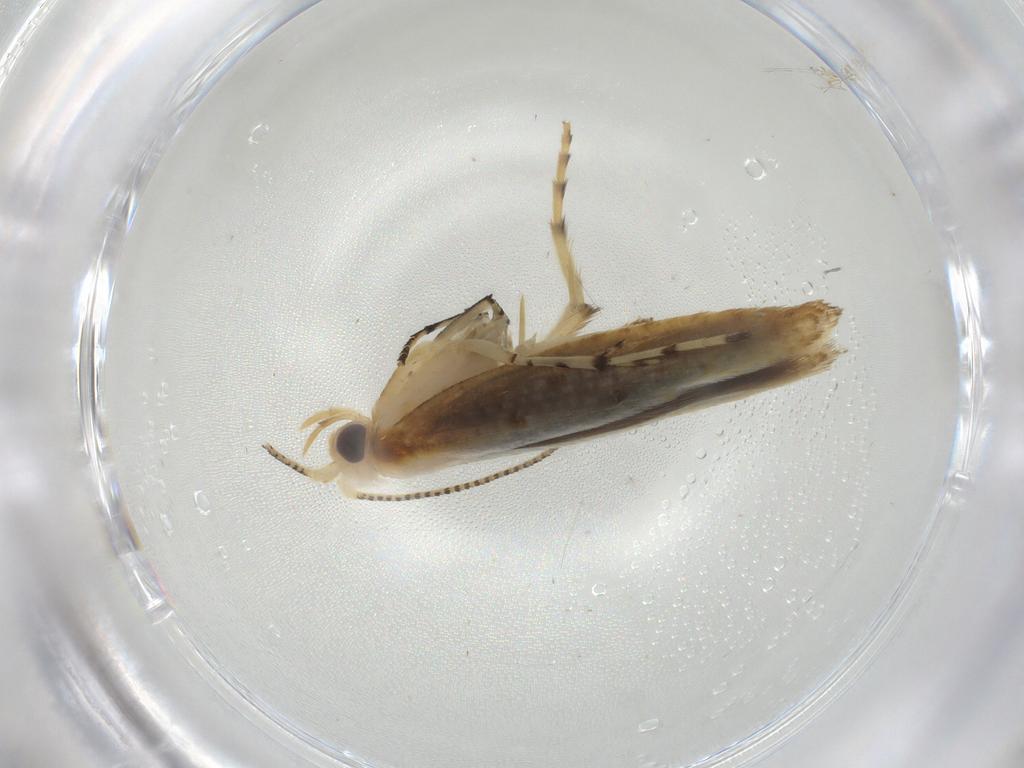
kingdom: Animalia
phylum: Arthropoda
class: Insecta
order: Lepidoptera
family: Argyresthiidae
